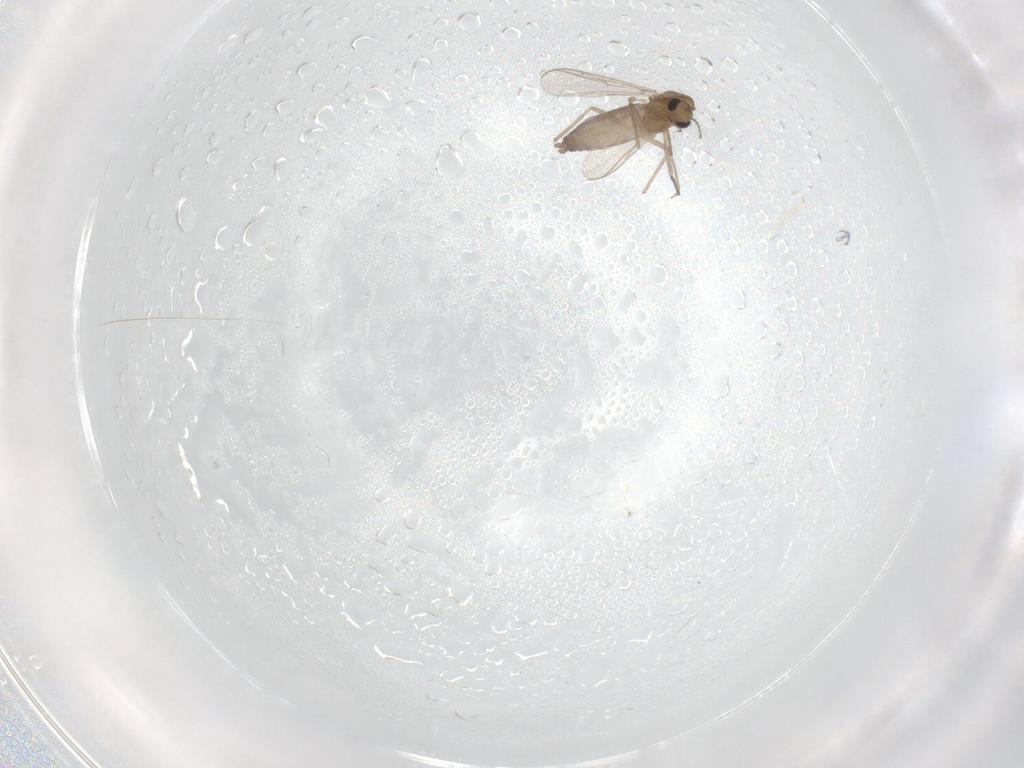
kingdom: Animalia
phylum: Arthropoda
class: Insecta
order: Diptera
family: Chironomidae
